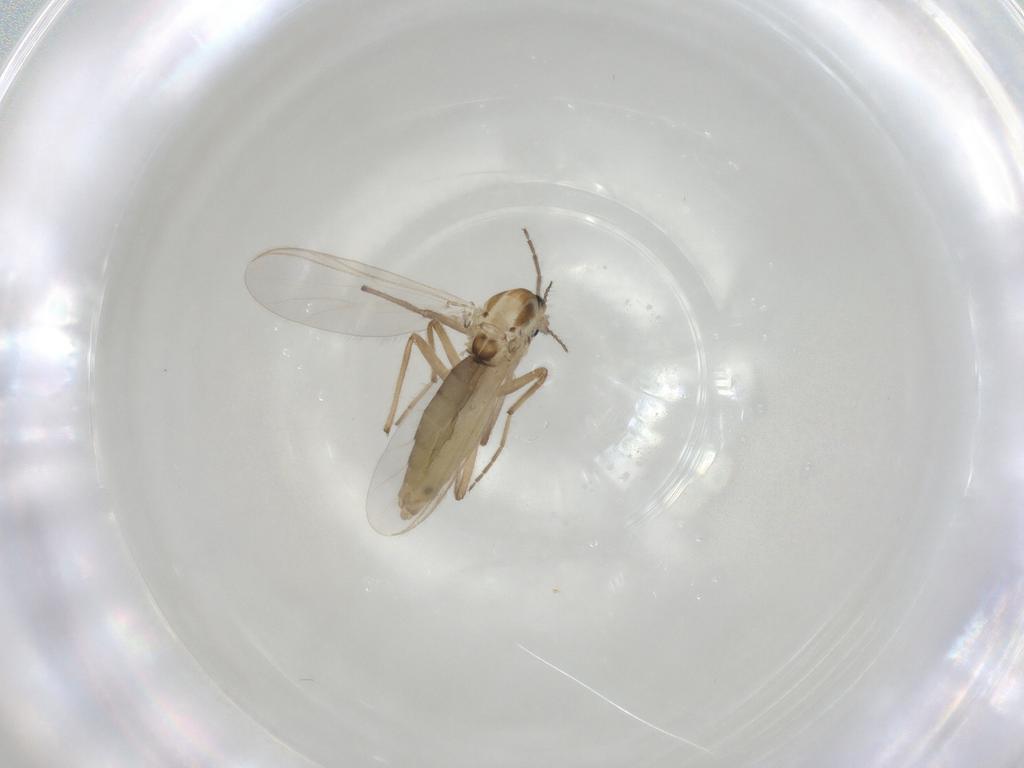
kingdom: Animalia
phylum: Arthropoda
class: Insecta
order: Diptera
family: Chironomidae
